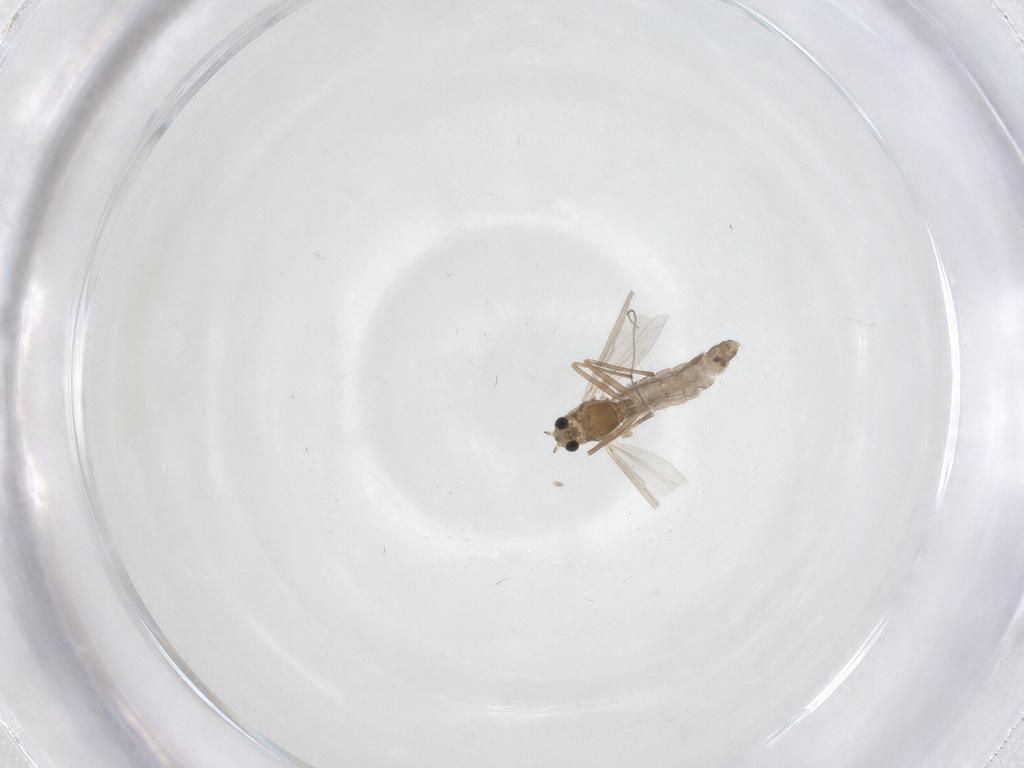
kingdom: Animalia
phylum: Arthropoda
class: Insecta
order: Diptera
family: Chironomidae
